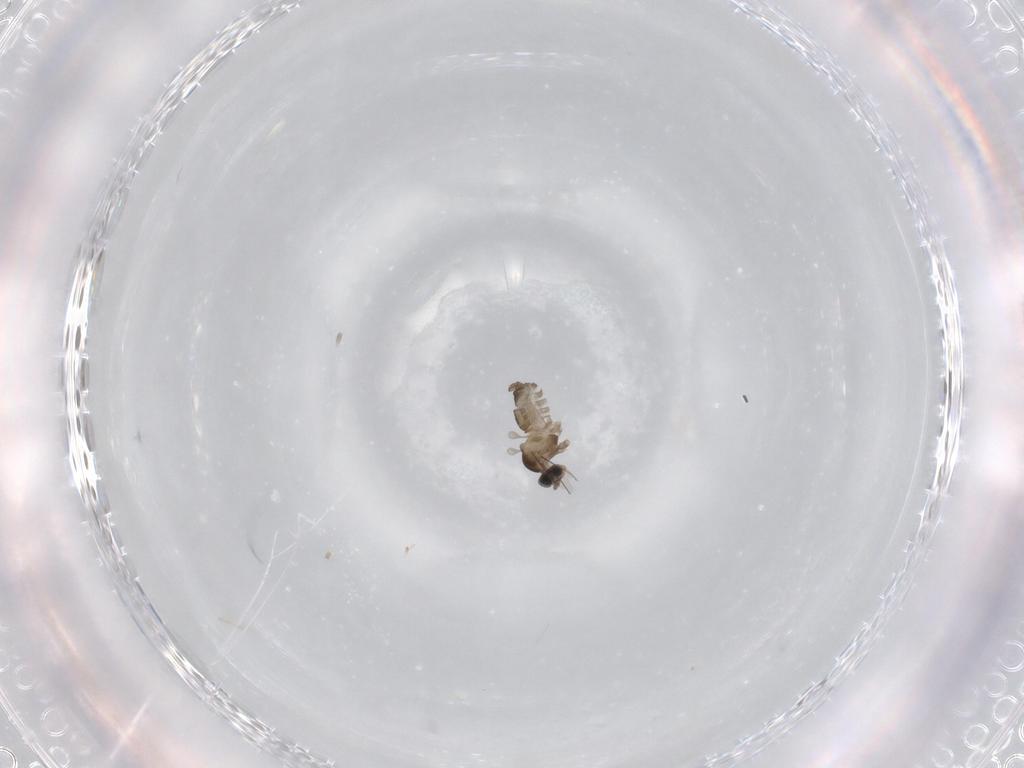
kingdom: Animalia
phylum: Arthropoda
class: Insecta
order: Diptera
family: Cecidomyiidae
